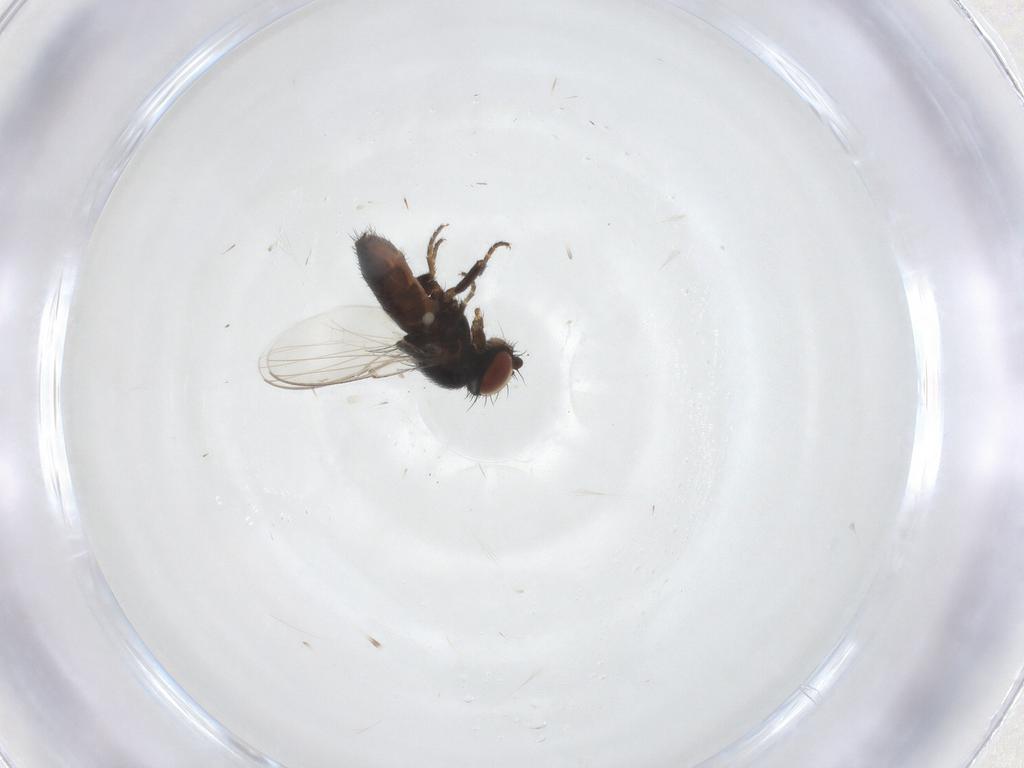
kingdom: Animalia
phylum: Arthropoda
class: Insecta
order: Diptera
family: Milichiidae
